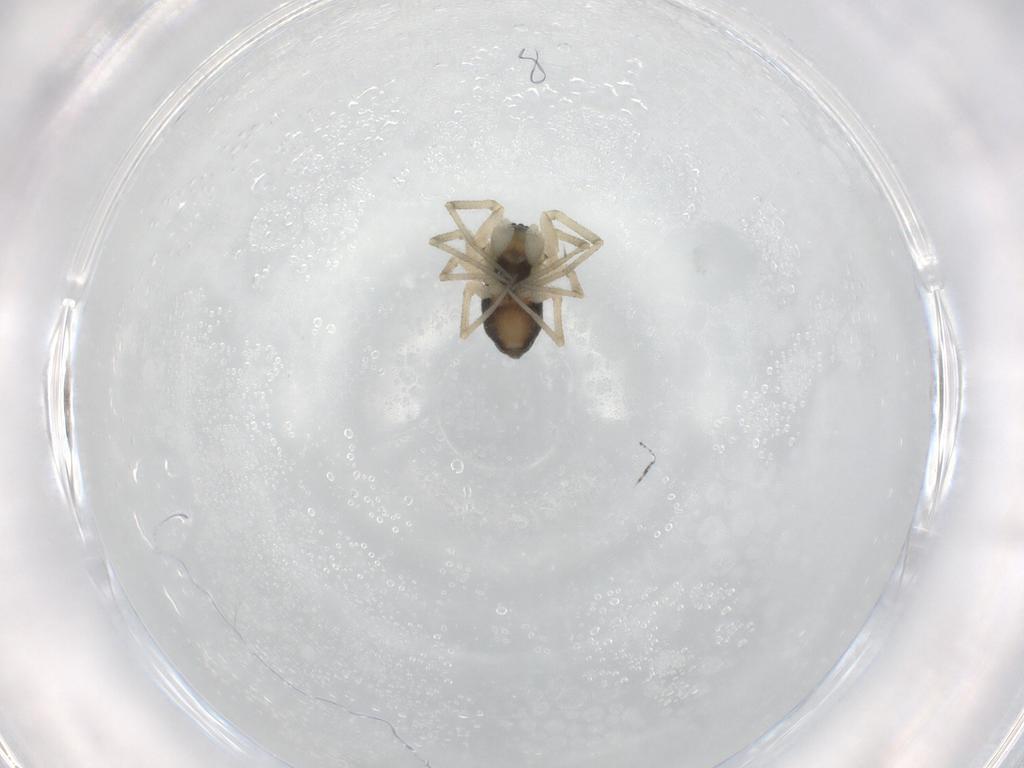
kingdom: Animalia
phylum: Arthropoda
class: Arachnida
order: Araneae
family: Linyphiidae
